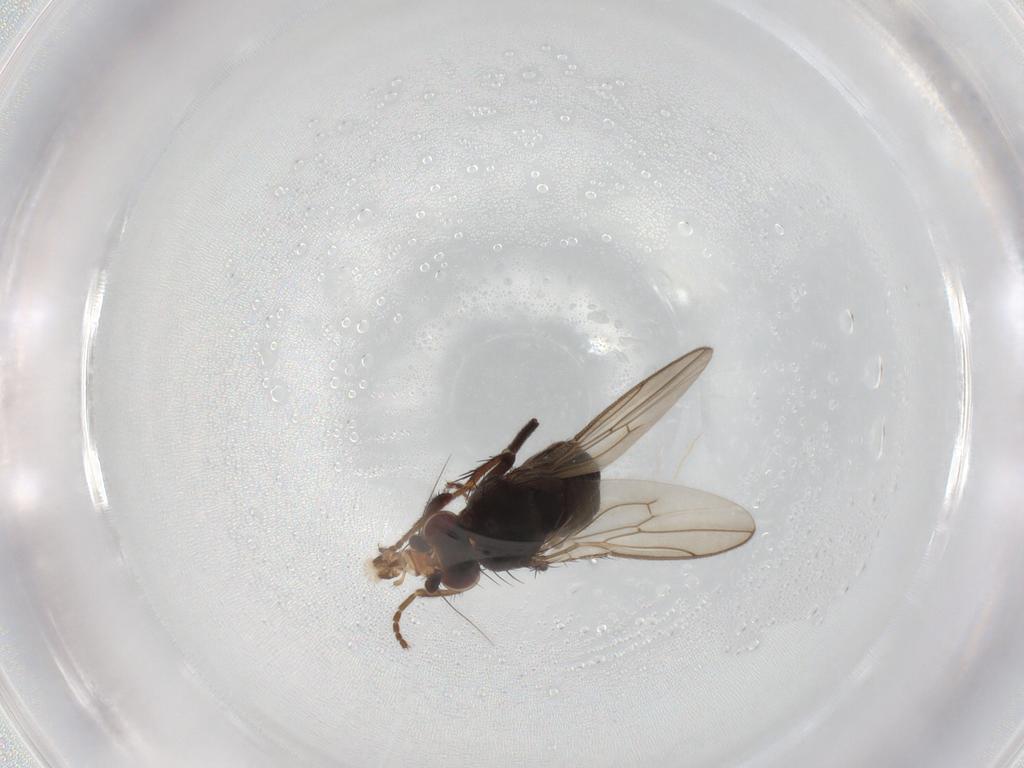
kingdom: Animalia
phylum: Arthropoda
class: Insecta
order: Diptera
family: Sphaeroceridae
